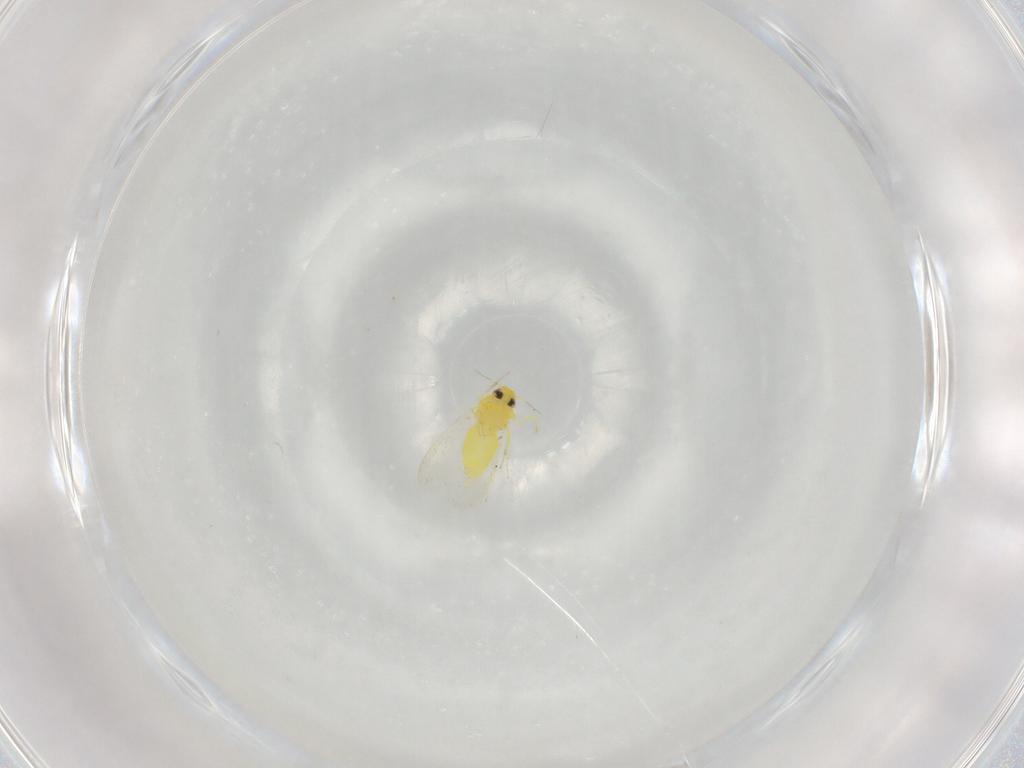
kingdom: Animalia
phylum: Arthropoda
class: Insecta
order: Hemiptera
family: Aleyrodidae
